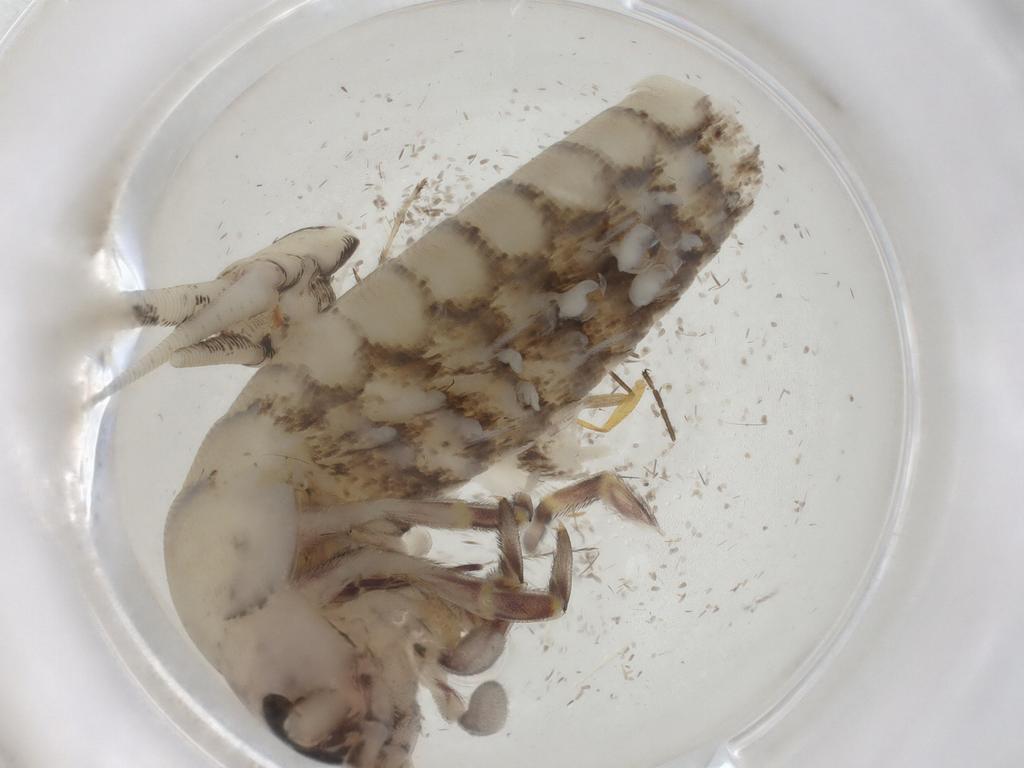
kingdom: Animalia
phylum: Arthropoda
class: Insecta
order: Archaeognatha
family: Machilidae
